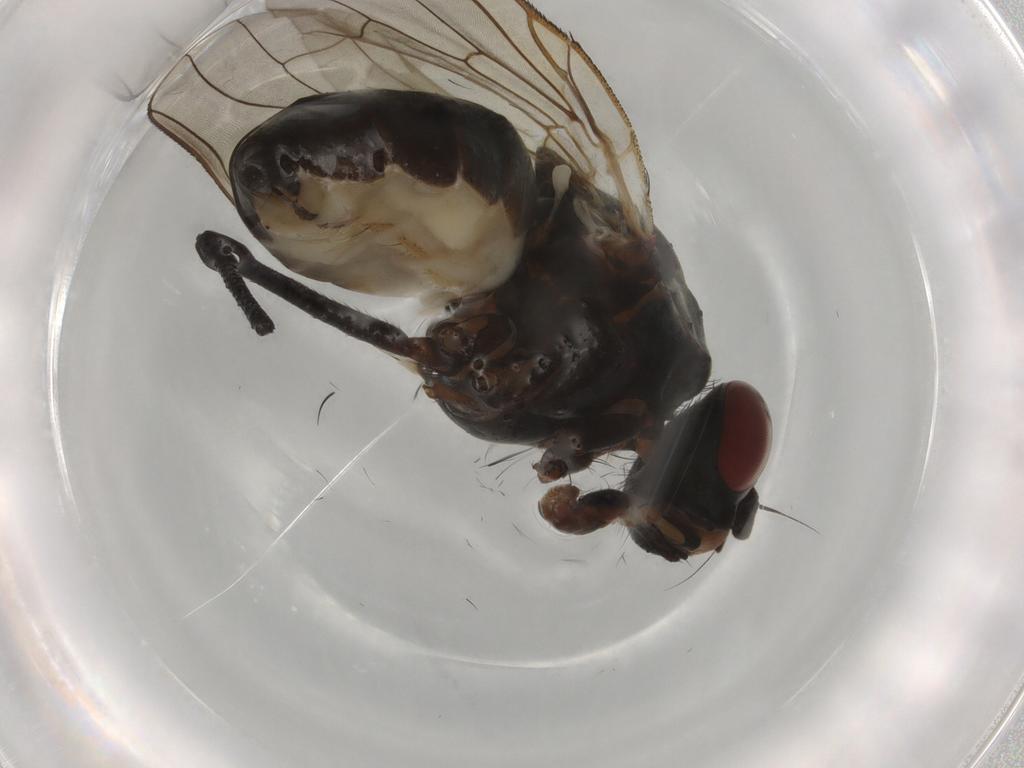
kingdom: Animalia
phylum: Arthropoda
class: Insecta
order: Diptera
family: Chloropidae
